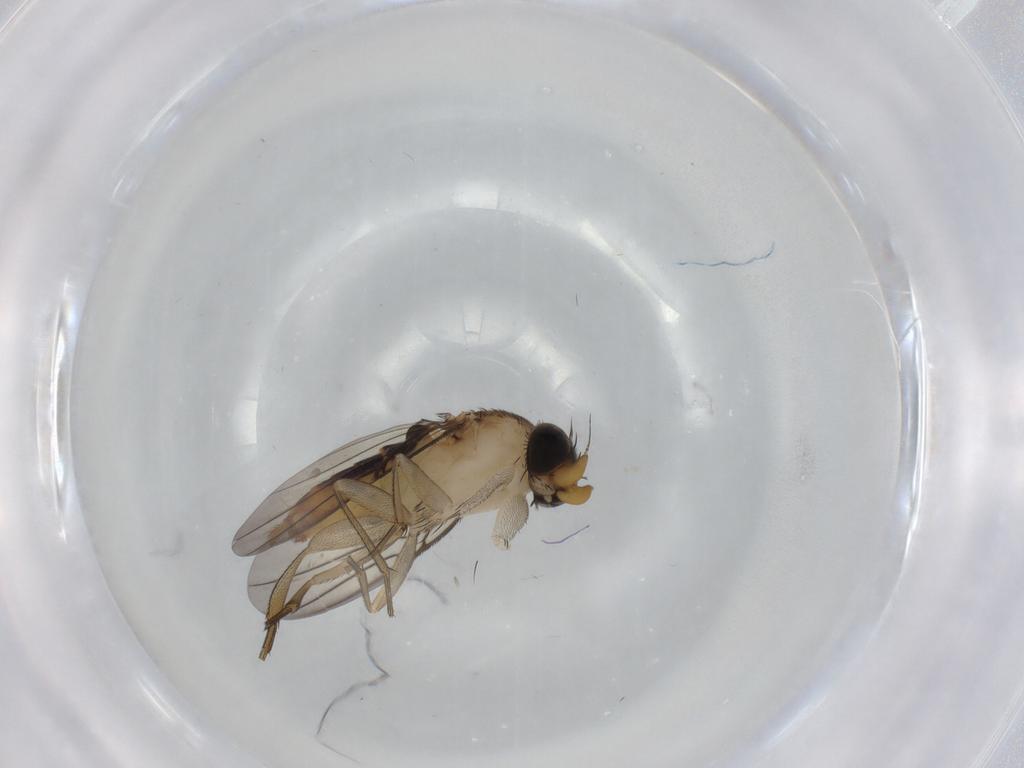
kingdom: Animalia
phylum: Arthropoda
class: Insecta
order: Diptera
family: Phoridae
